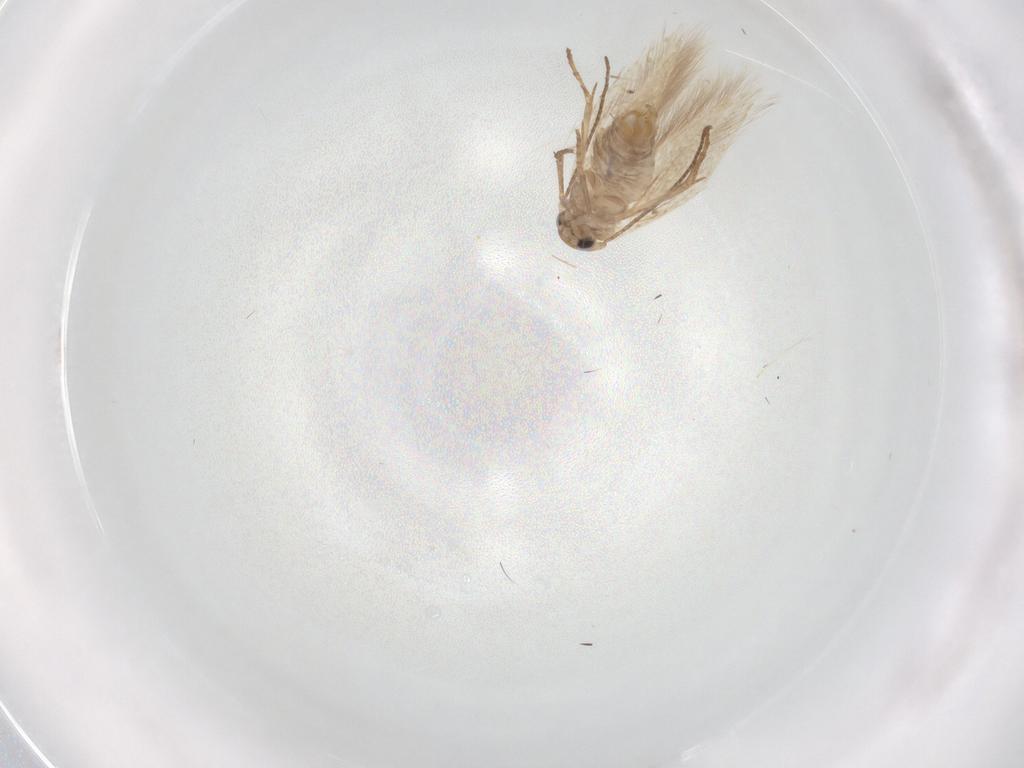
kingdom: Animalia
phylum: Arthropoda
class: Insecta
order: Lepidoptera
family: Bucculatricidae
